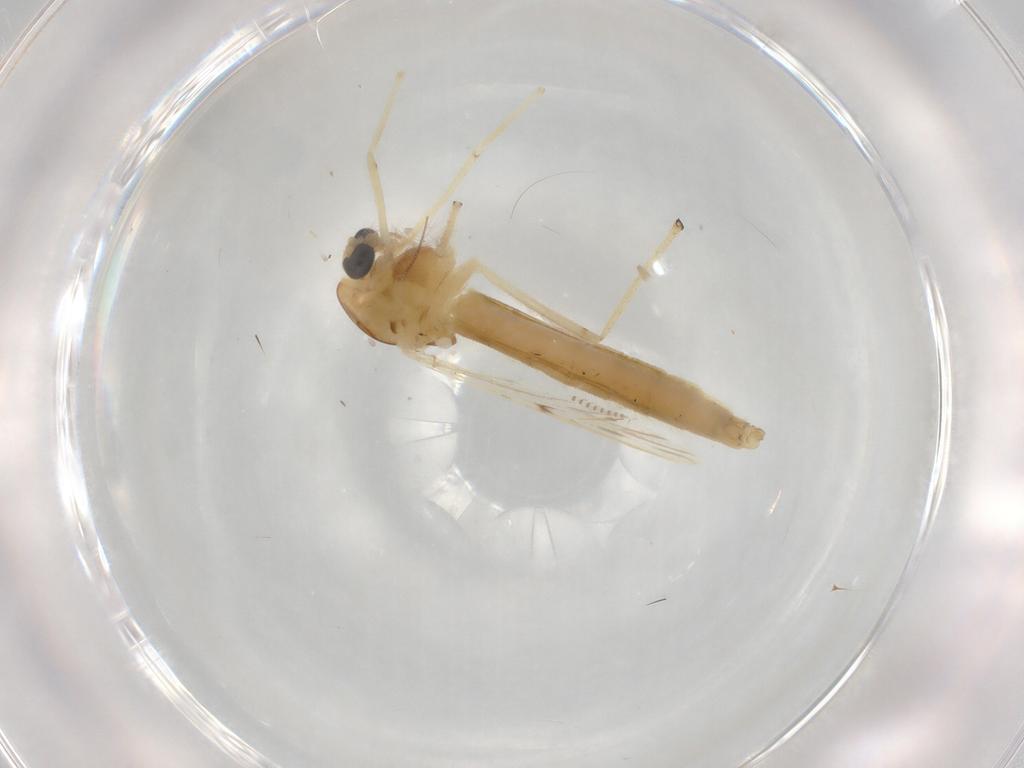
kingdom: Animalia
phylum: Arthropoda
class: Insecta
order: Diptera
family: Chironomidae
